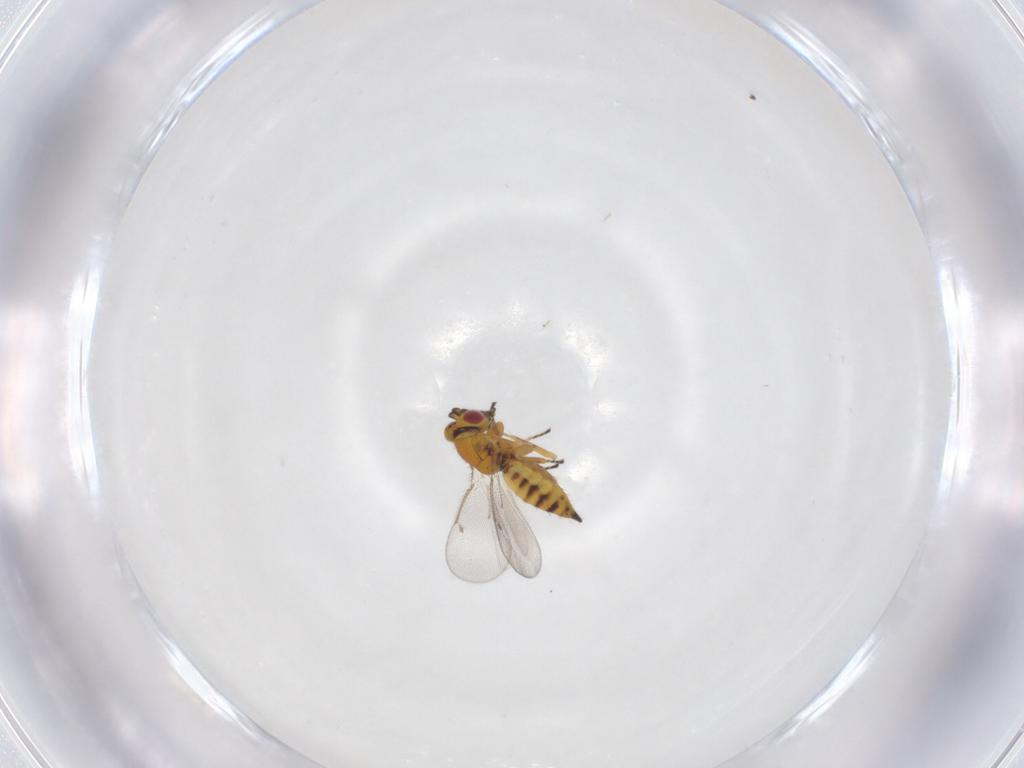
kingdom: Animalia
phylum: Arthropoda
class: Insecta
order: Hymenoptera
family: Eulophidae
